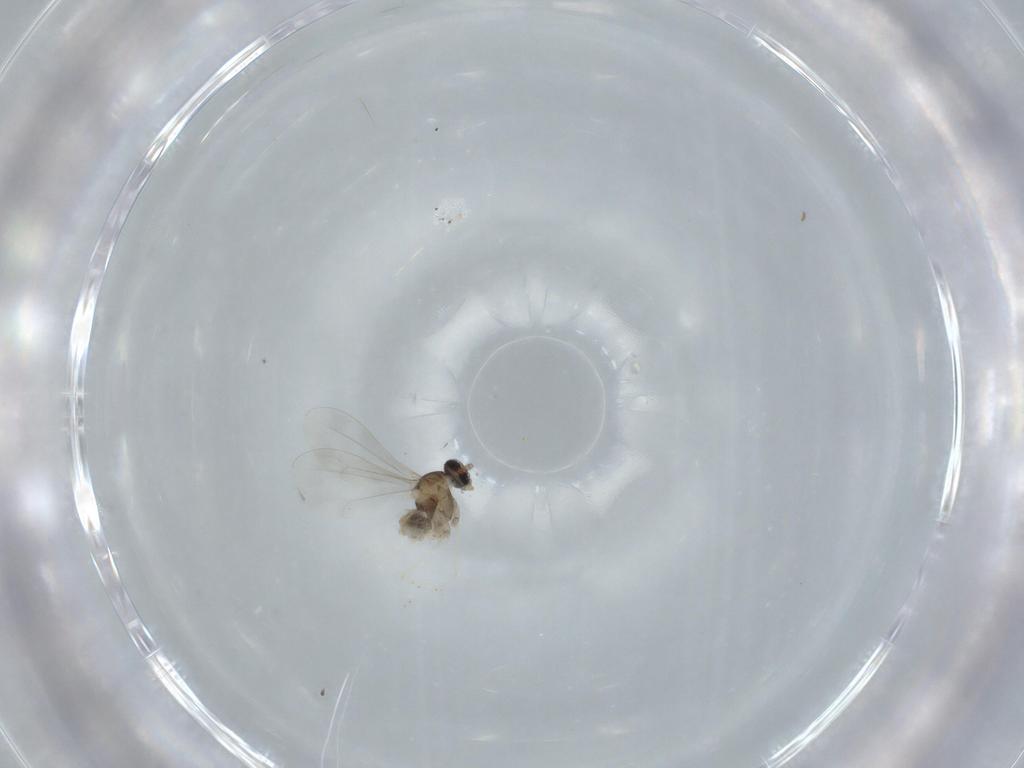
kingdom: Animalia
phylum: Arthropoda
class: Insecta
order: Diptera
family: Cecidomyiidae
